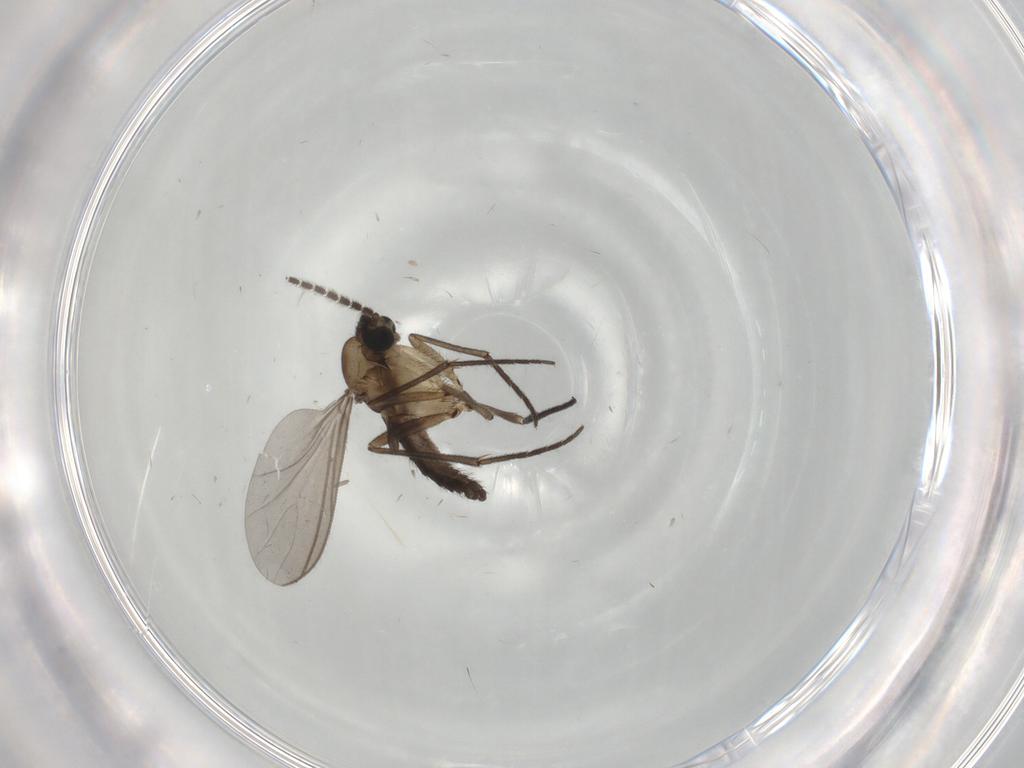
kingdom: Animalia
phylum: Arthropoda
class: Insecta
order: Diptera
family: Sciaridae
